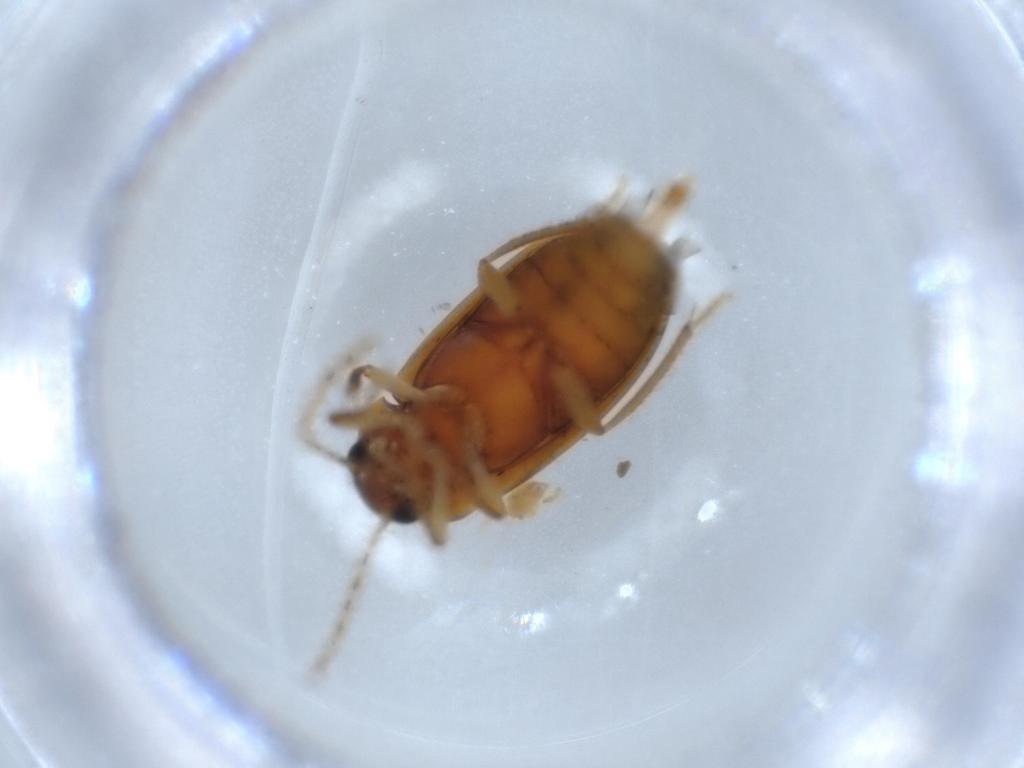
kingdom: Animalia
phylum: Arthropoda
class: Insecta
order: Coleoptera
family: Ptilodactylidae
